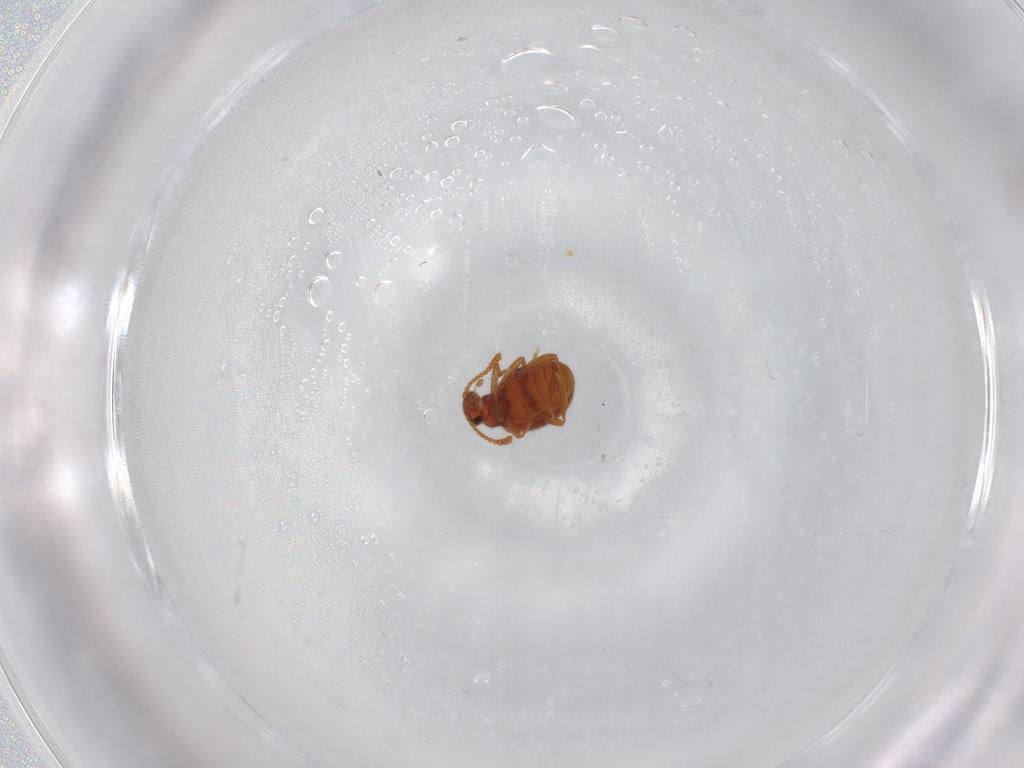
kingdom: Animalia
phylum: Arthropoda
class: Insecta
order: Coleoptera
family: Aderidae
